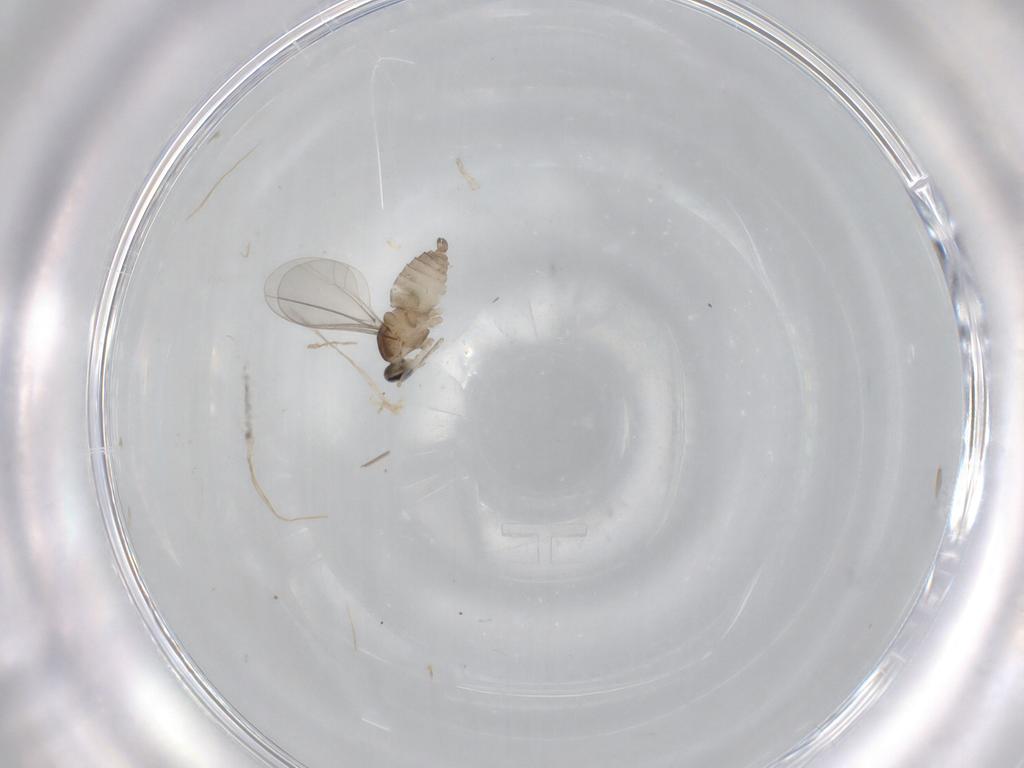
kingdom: Animalia
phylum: Arthropoda
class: Insecta
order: Diptera
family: Cecidomyiidae
